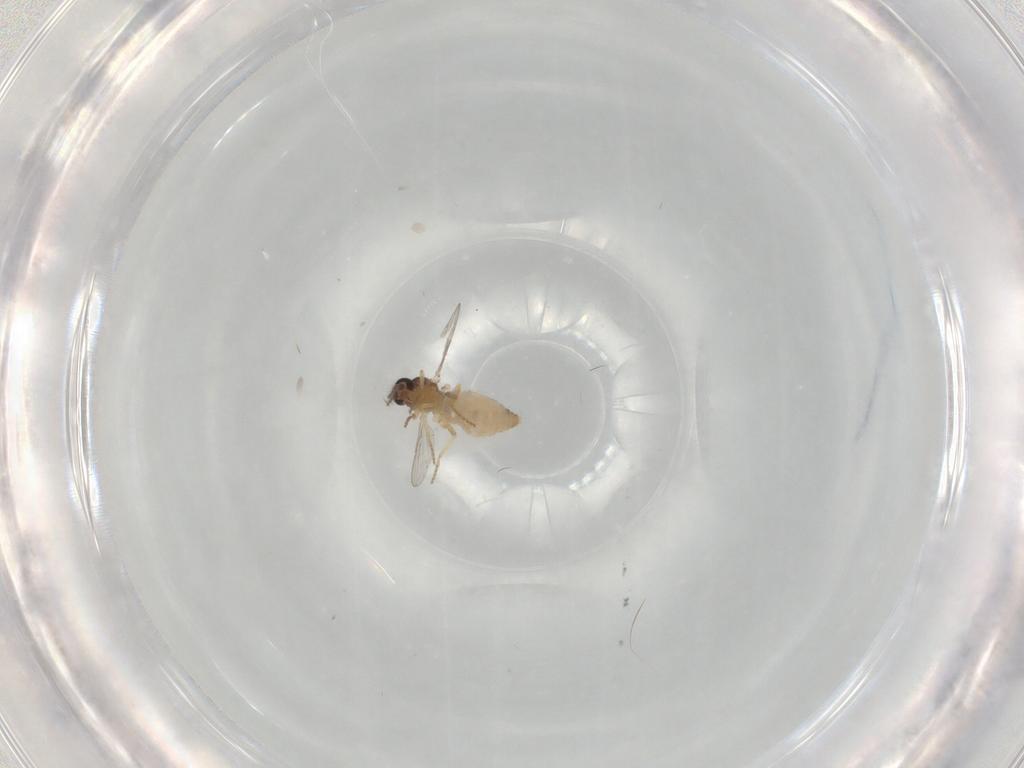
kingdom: Animalia
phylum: Arthropoda
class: Insecta
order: Diptera
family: Ceratopogonidae
